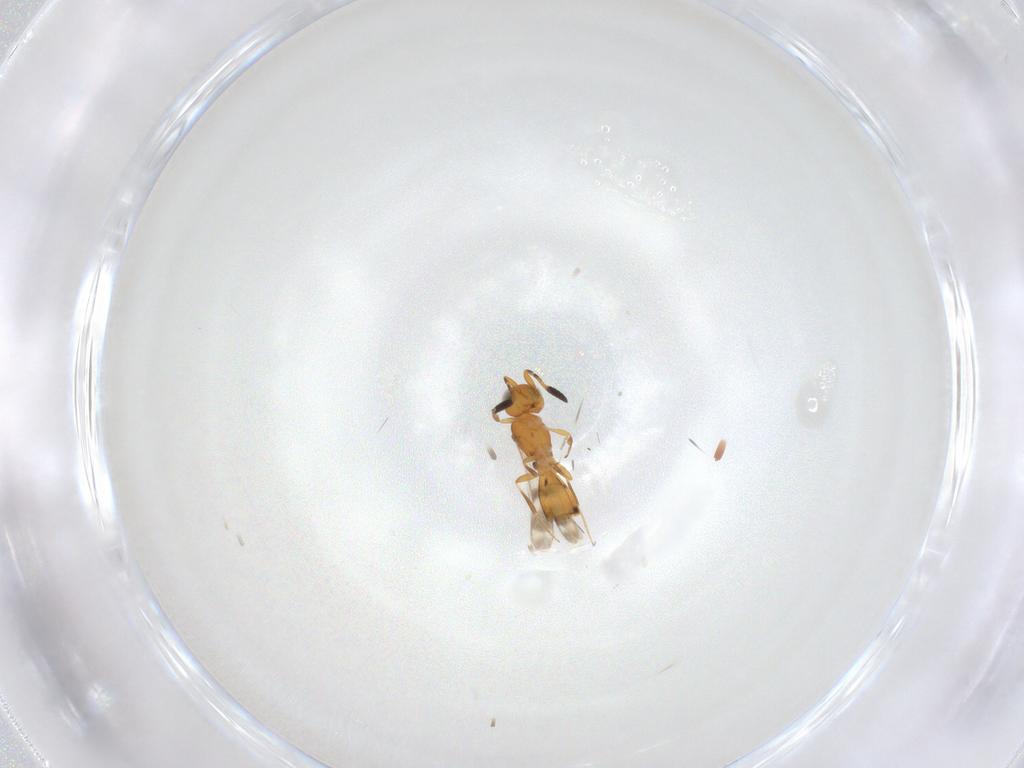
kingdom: Animalia
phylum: Arthropoda
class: Insecta
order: Hymenoptera
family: Scelionidae
